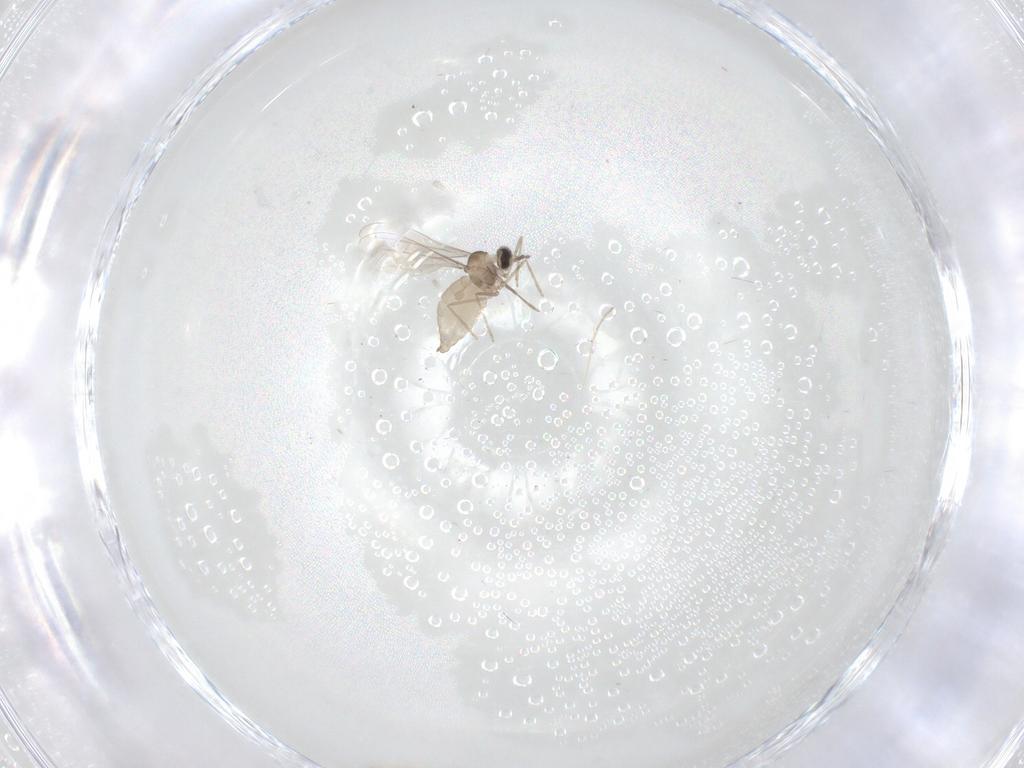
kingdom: Animalia
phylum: Arthropoda
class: Insecta
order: Diptera
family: Cecidomyiidae
